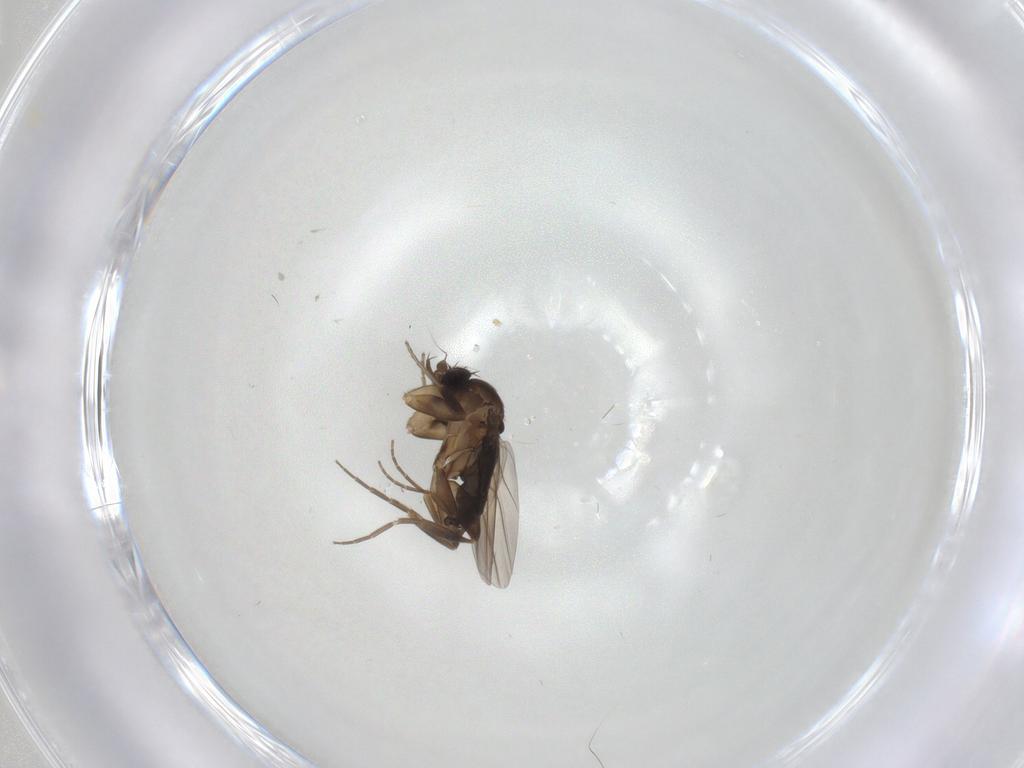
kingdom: Animalia
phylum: Arthropoda
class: Insecta
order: Diptera
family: Phoridae
